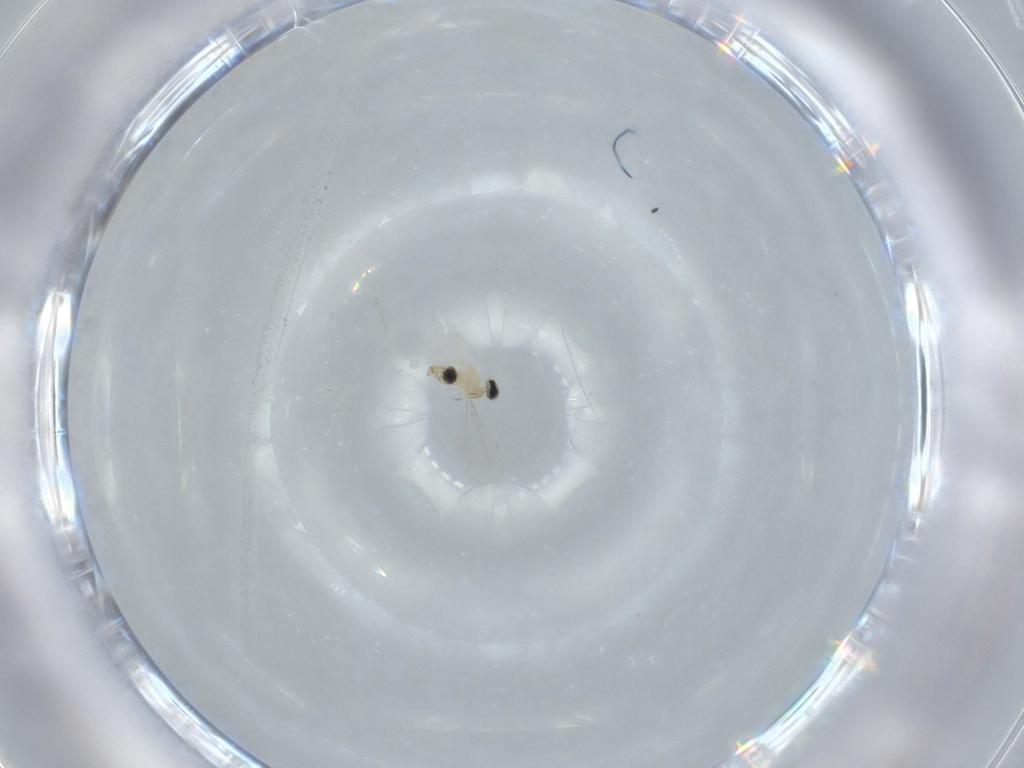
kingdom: Animalia
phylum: Arthropoda
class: Insecta
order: Diptera
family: Cecidomyiidae
